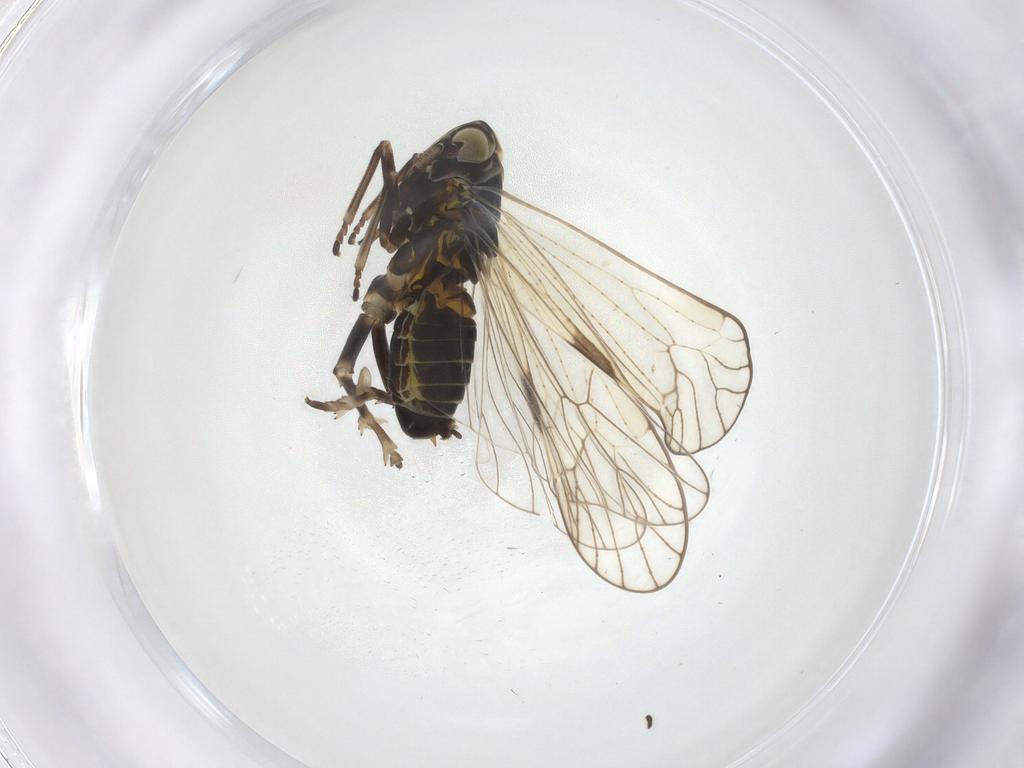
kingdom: Animalia
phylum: Arthropoda
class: Insecta
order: Hemiptera
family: Delphacidae
